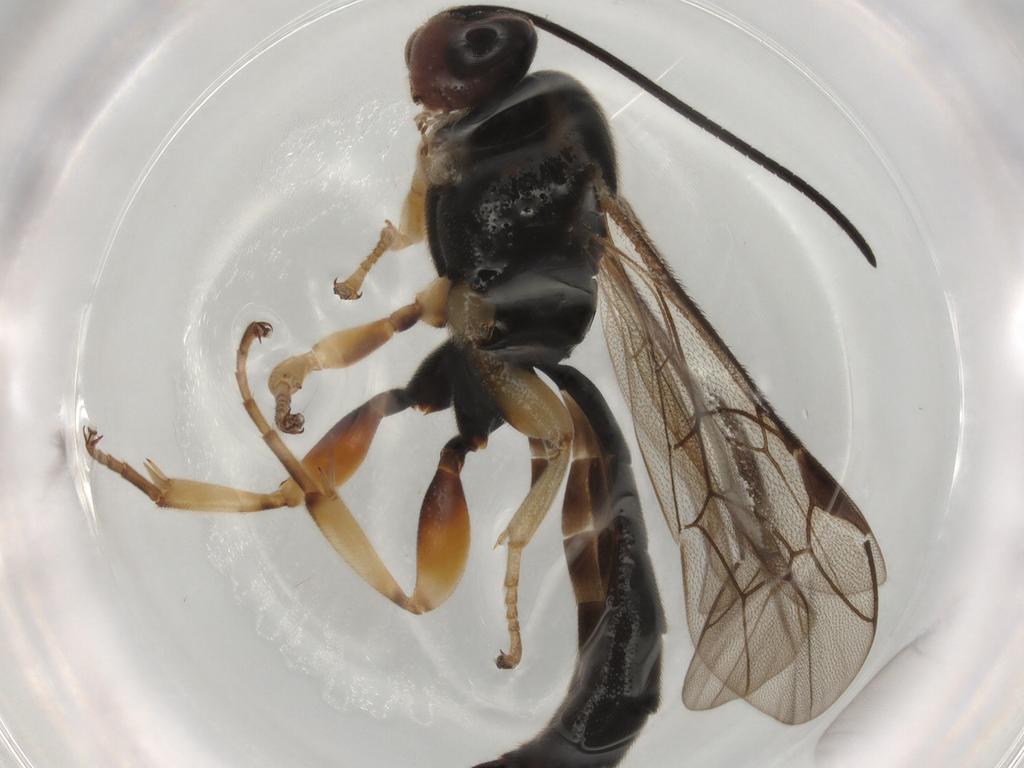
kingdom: Animalia
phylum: Arthropoda
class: Insecta
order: Hymenoptera
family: Ichneumonidae
